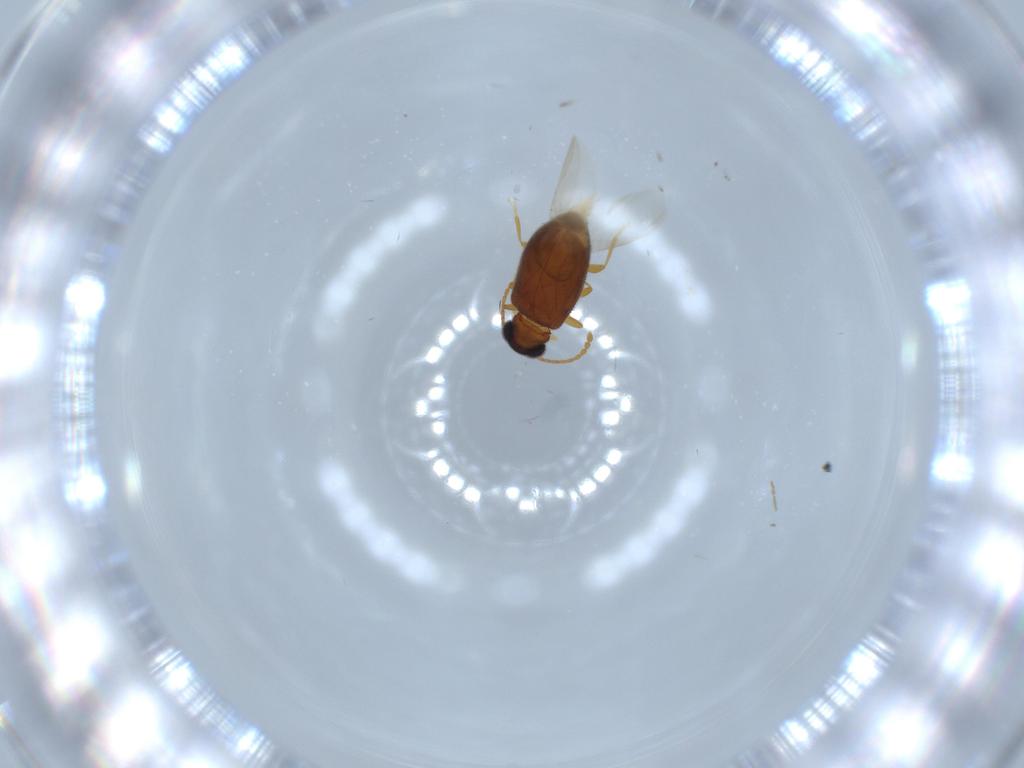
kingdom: Animalia
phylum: Arthropoda
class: Insecta
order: Coleoptera
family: Aderidae
